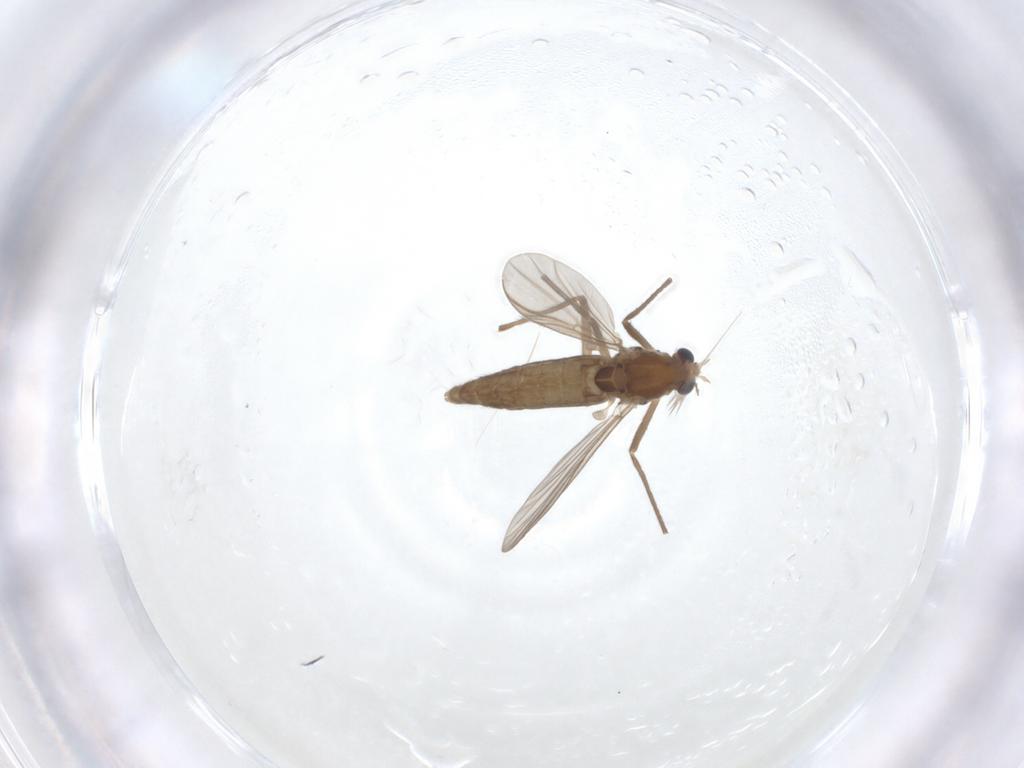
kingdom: Animalia
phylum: Arthropoda
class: Insecta
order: Diptera
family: Chironomidae
